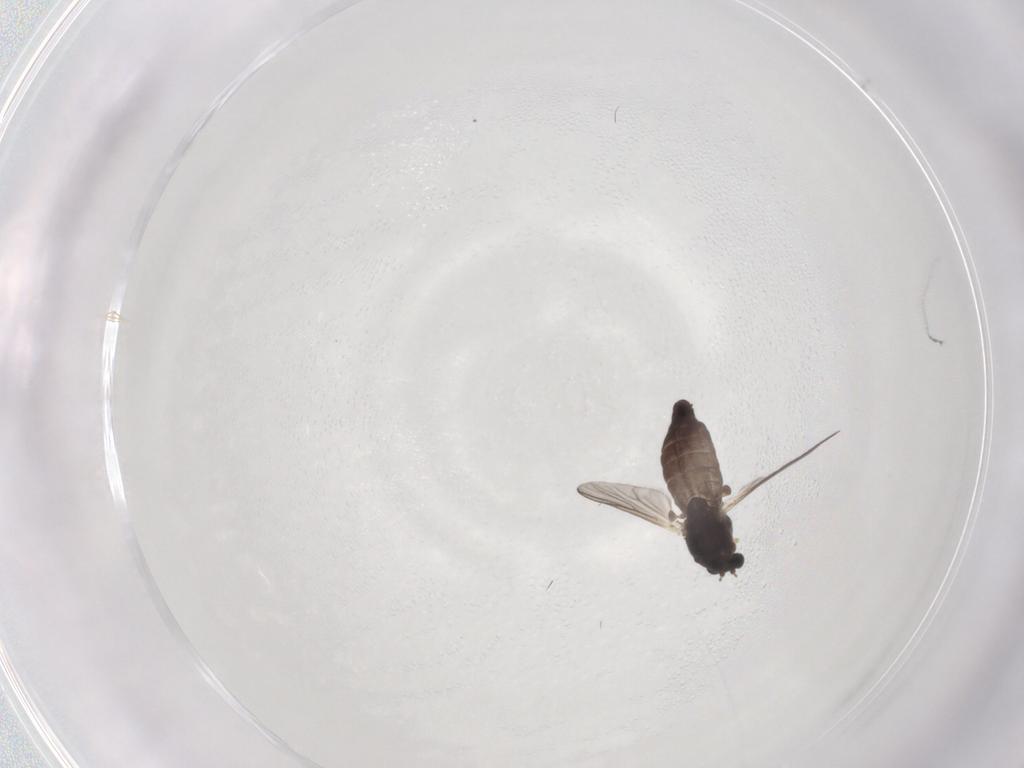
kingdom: Animalia
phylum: Arthropoda
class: Insecta
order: Diptera
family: Chironomidae
